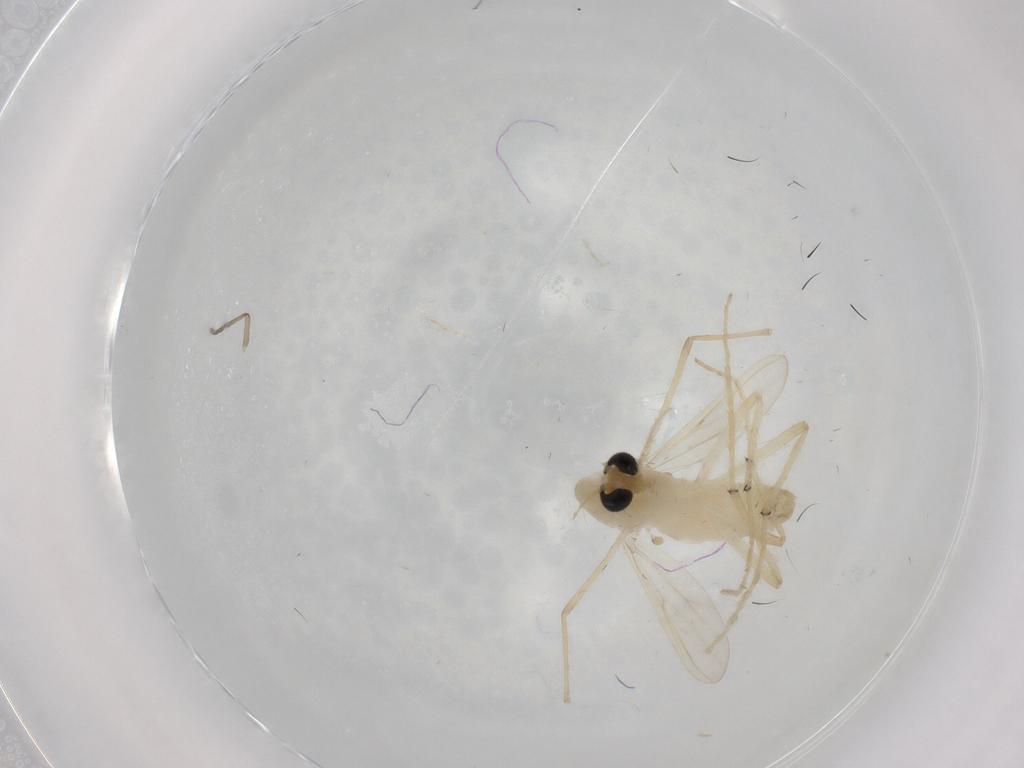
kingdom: Animalia
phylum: Arthropoda
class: Insecta
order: Diptera
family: Chironomidae
